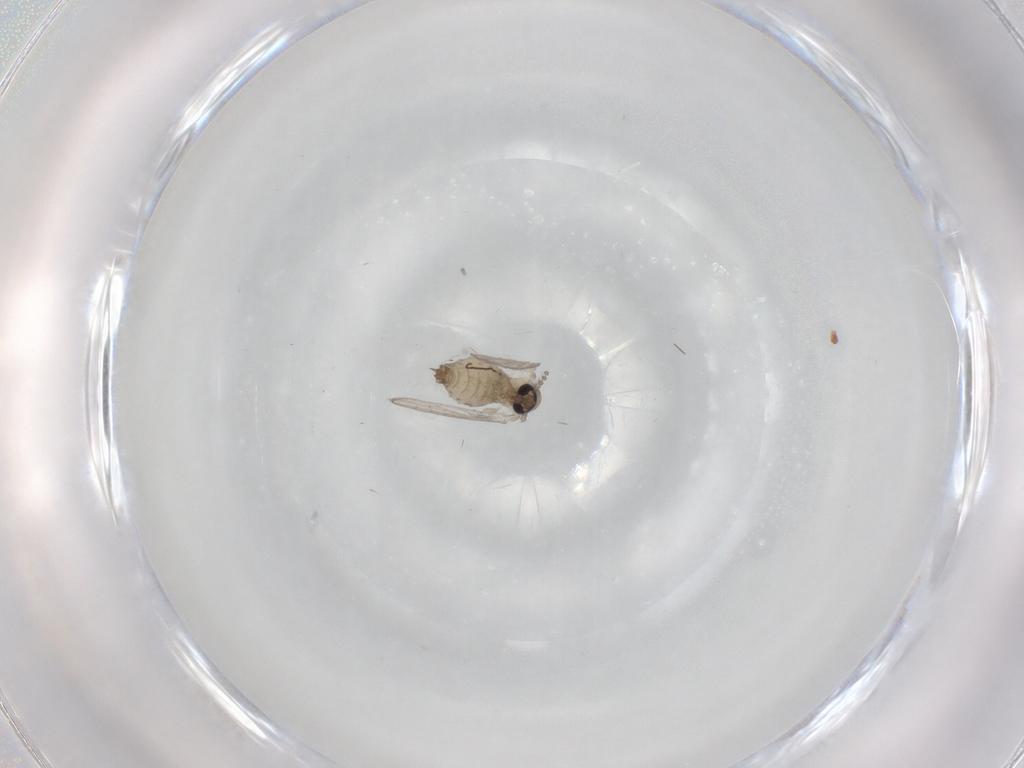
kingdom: Animalia
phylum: Arthropoda
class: Insecta
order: Diptera
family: Psychodidae
